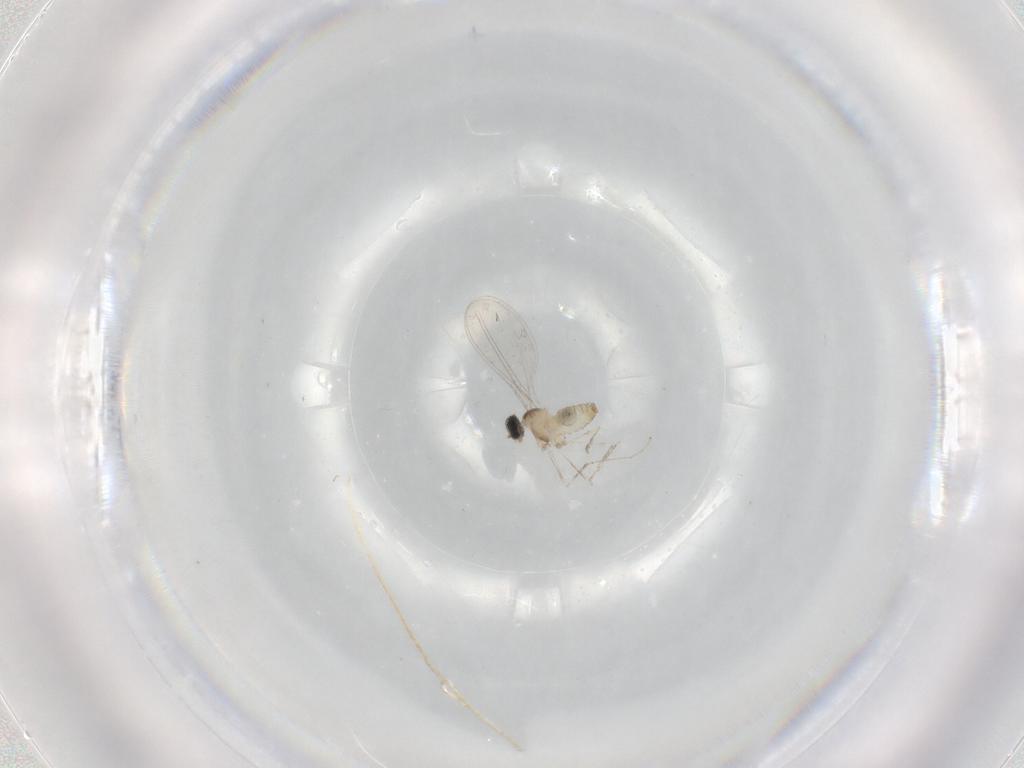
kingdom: Animalia
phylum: Arthropoda
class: Insecta
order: Diptera
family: Cecidomyiidae
